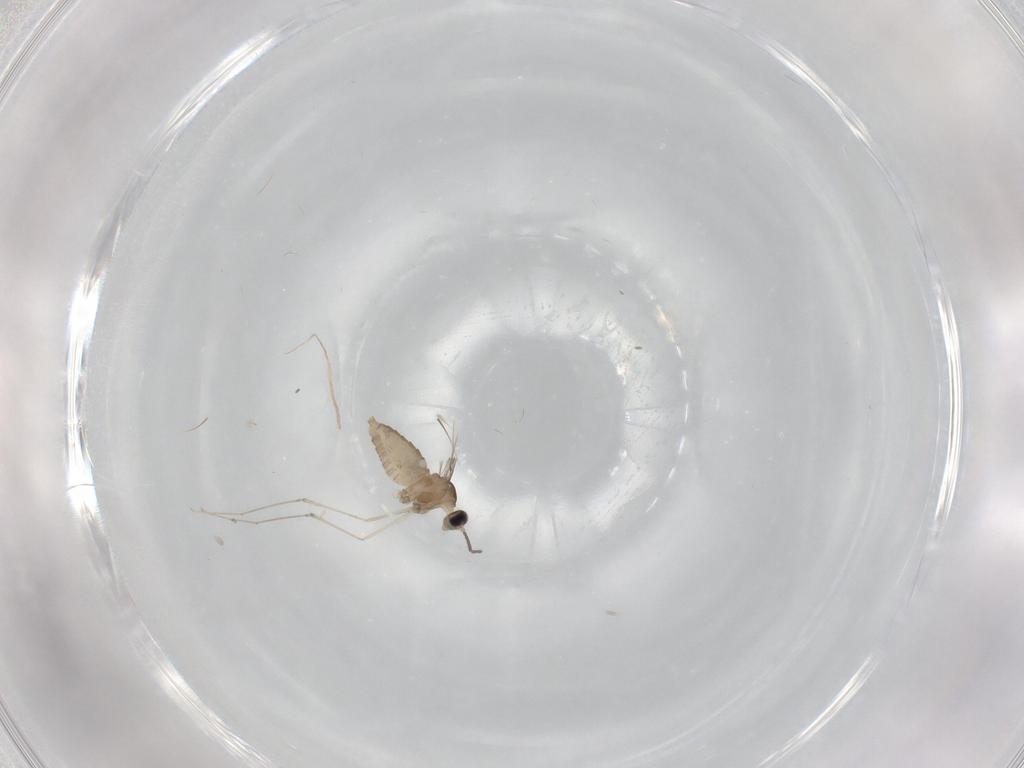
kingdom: Animalia
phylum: Arthropoda
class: Insecta
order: Diptera
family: Cecidomyiidae
